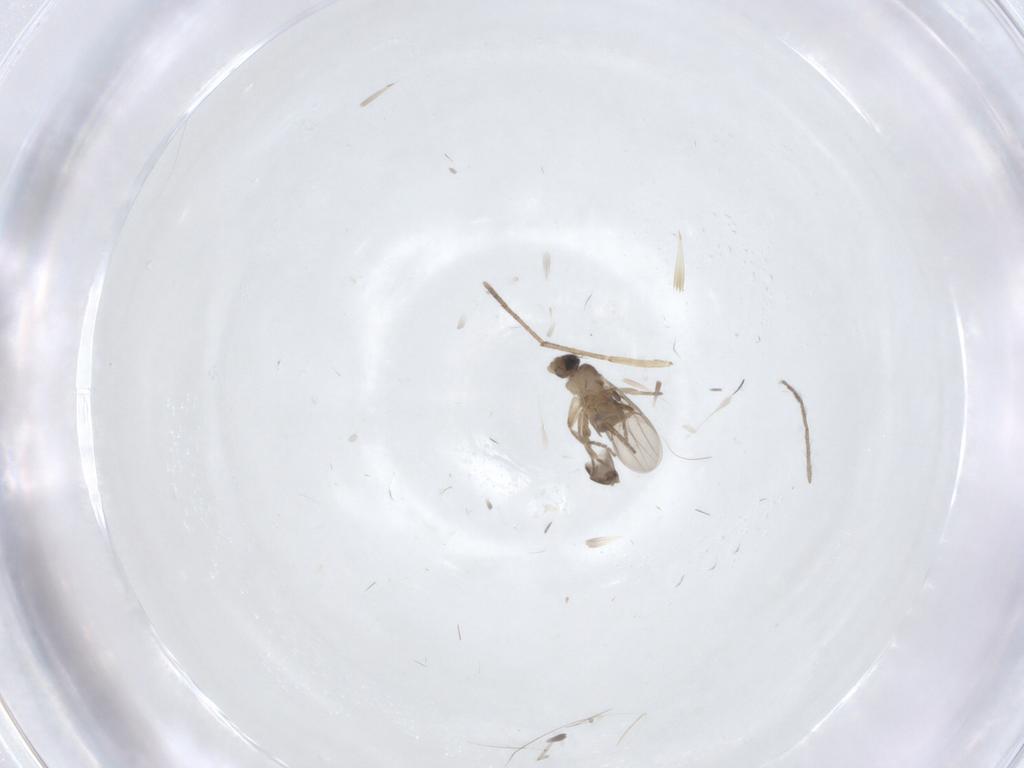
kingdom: Animalia
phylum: Arthropoda
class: Insecta
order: Diptera
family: Phoridae
